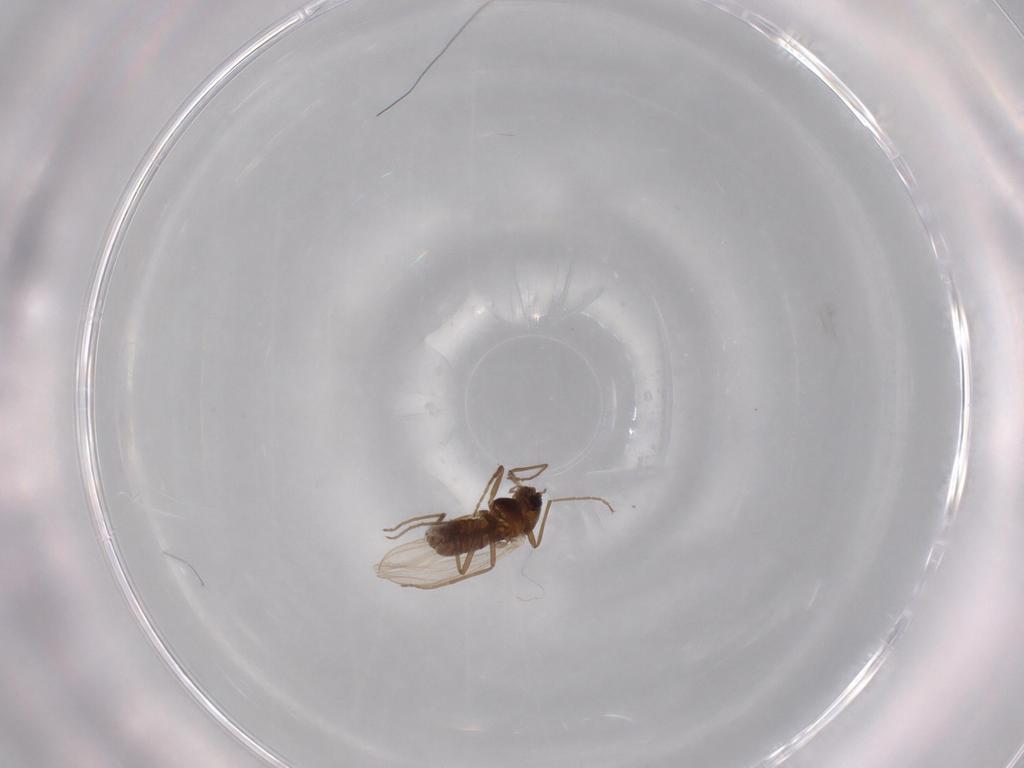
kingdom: Animalia
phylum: Arthropoda
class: Insecta
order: Diptera
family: Chironomidae
